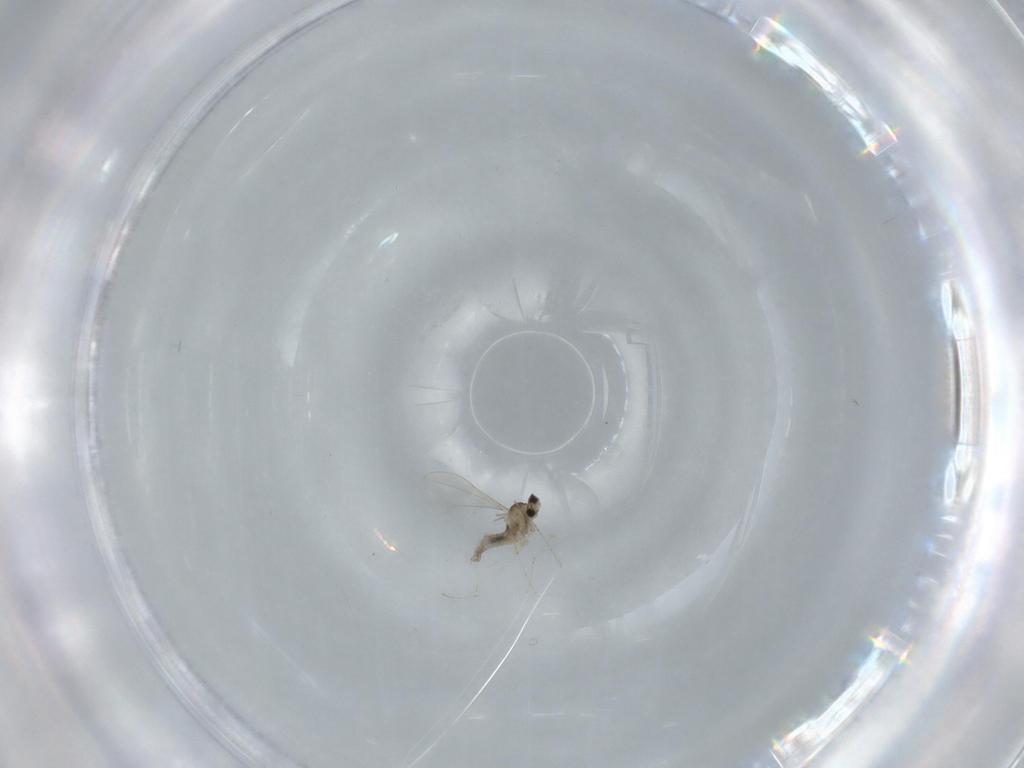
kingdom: Animalia
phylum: Arthropoda
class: Insecta
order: Diptera
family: Cecidomyiidae
